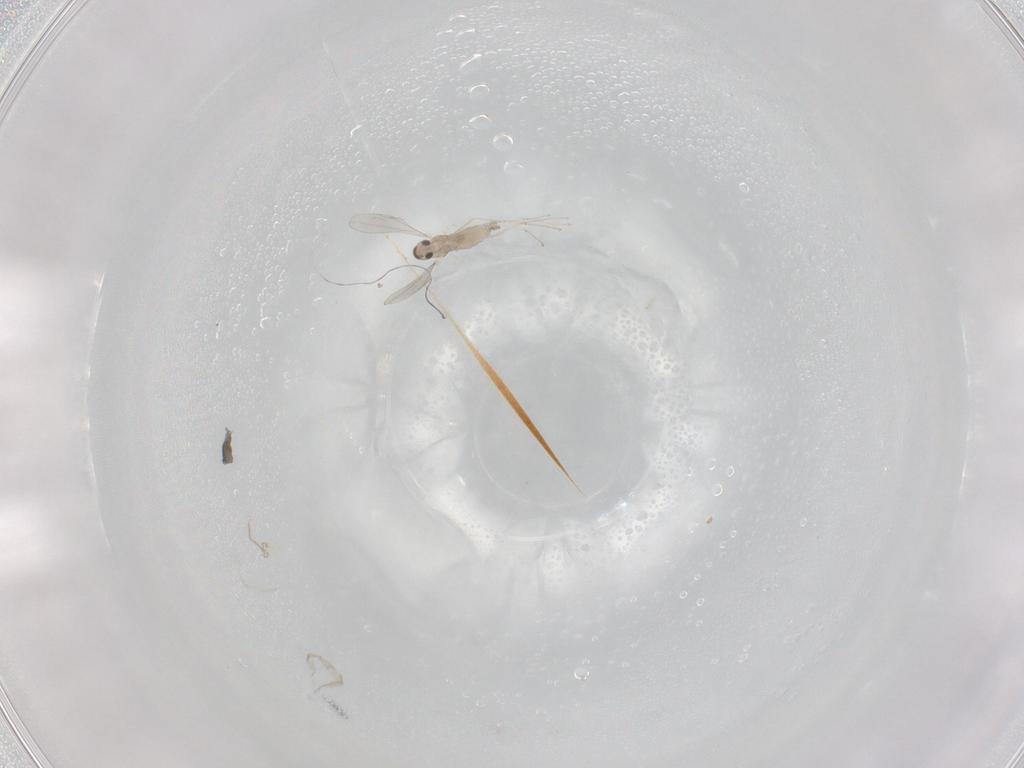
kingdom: Animalia
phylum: Arthropoda
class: Insecta
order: Diptera
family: Cecidomyiidae
